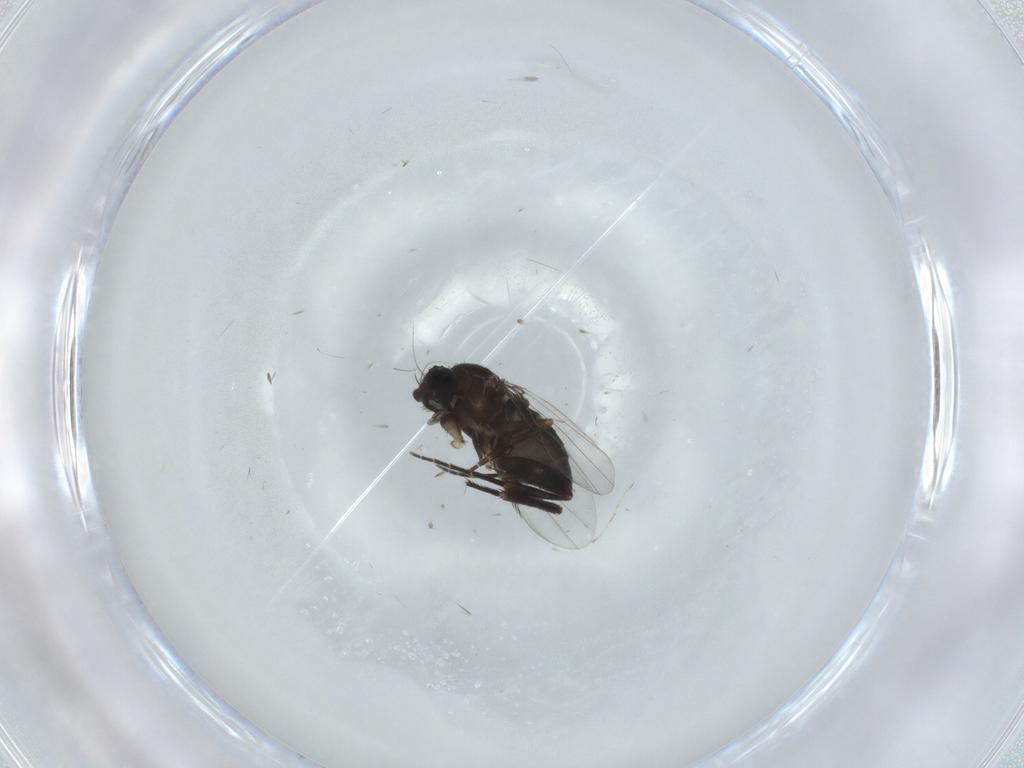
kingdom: Animalia
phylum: Arthropoda
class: Insecta
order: Diptera
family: Phoridae
